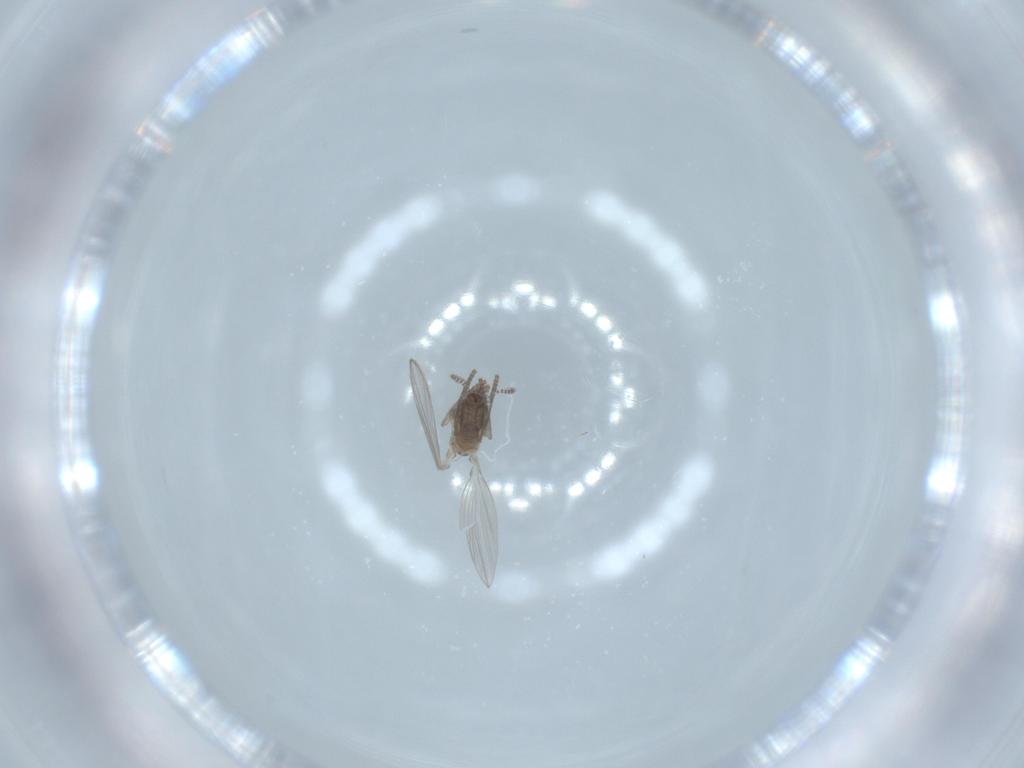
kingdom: Animalia
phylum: Arthropoda
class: Insecta
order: Diptera
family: Psychodidae
